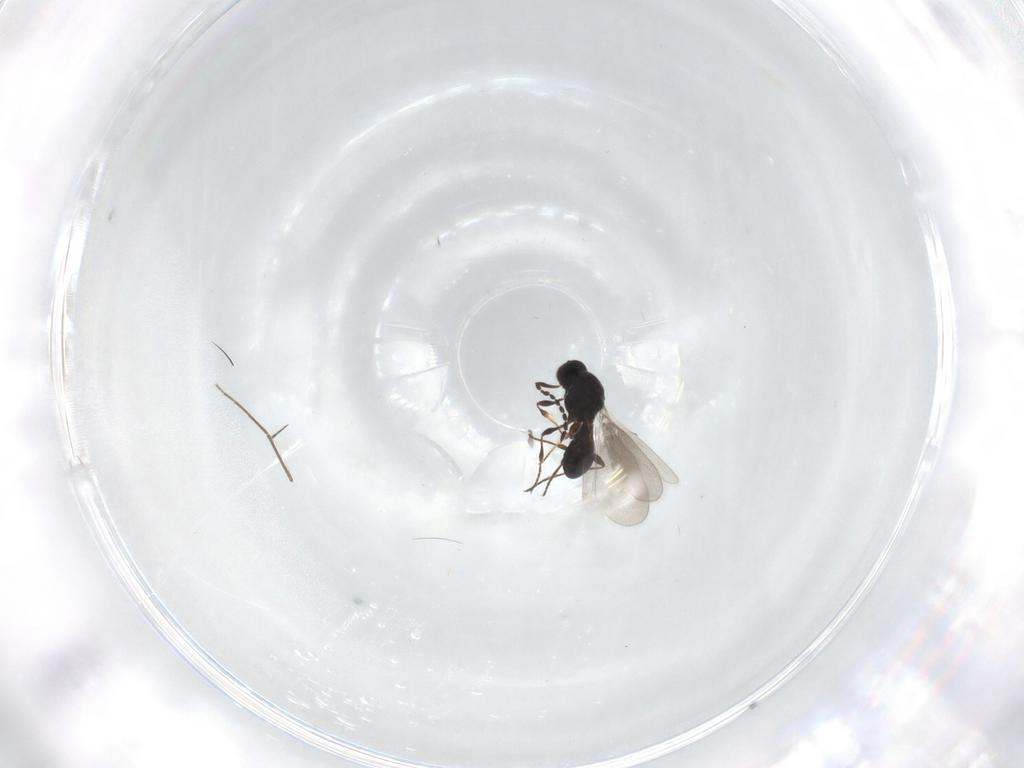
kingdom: Animalia
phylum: Arthropoda
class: Insecta
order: Hymenoptera
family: Platygastridae
